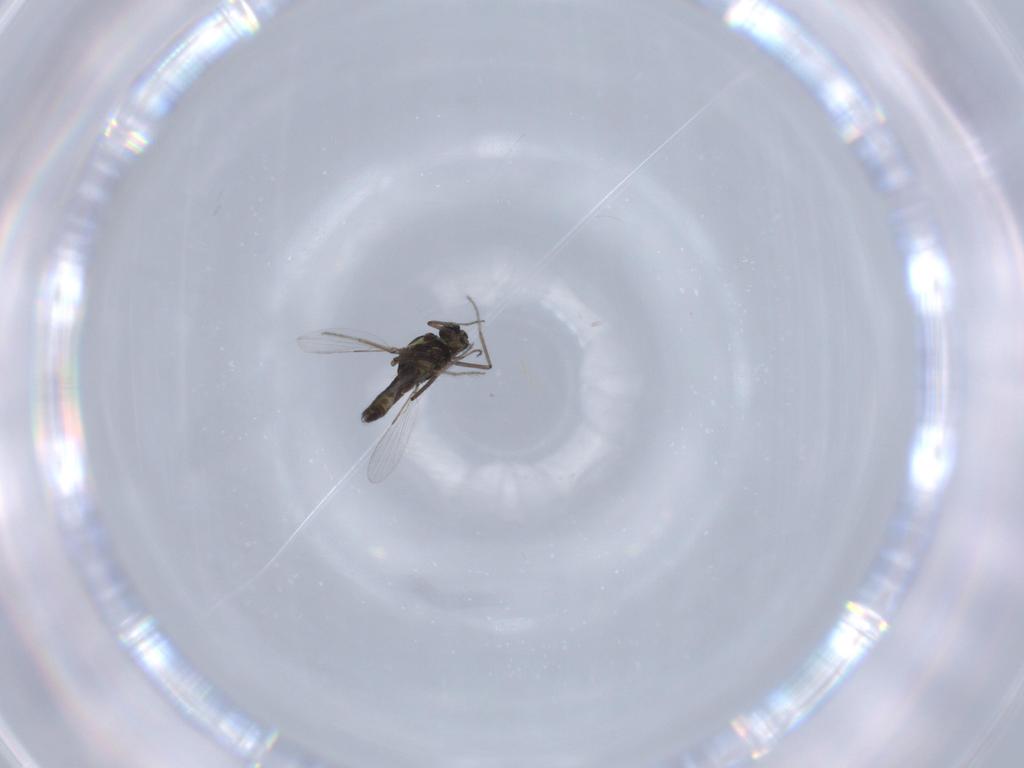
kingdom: Animalia
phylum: Arthropoda
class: Insecta
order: Diptera
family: Ceratopogonidae
